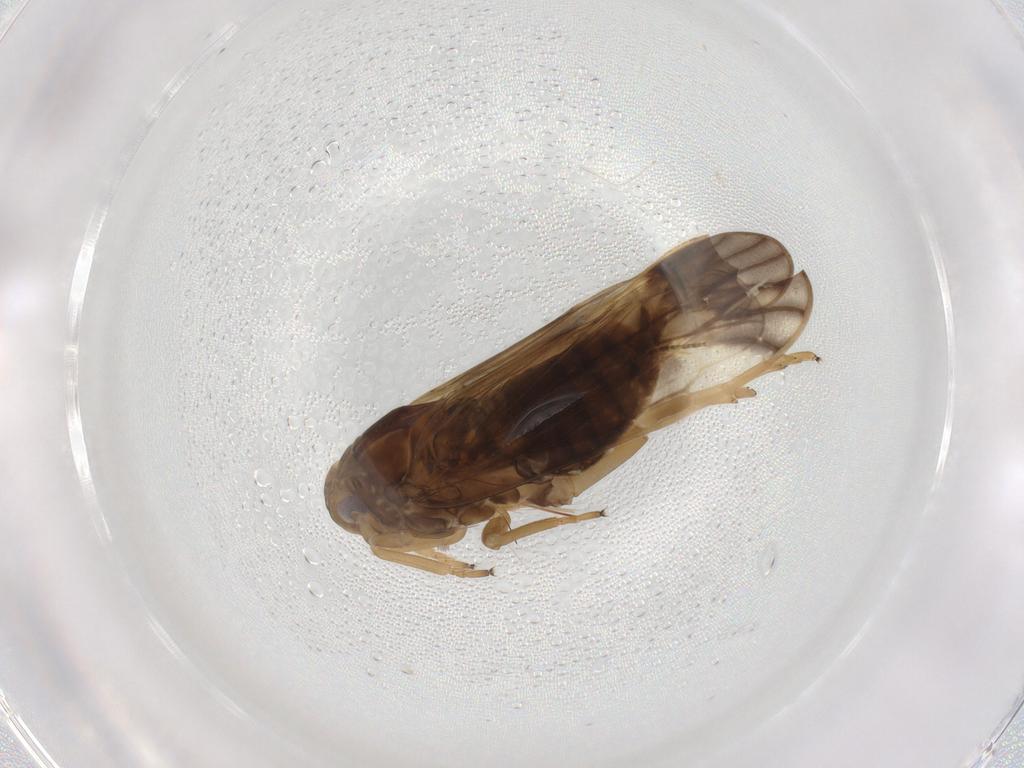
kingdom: Animalia
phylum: Arthropoda
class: Insecta
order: Hemiptera
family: Delphacidae
